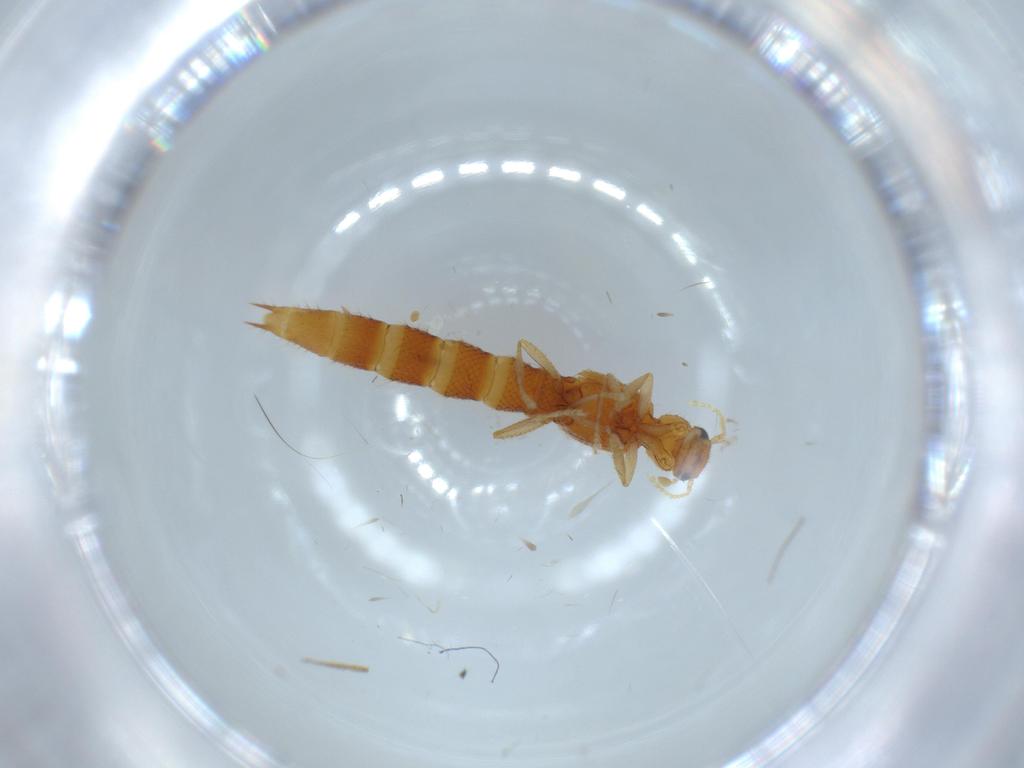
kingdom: Animalia
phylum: Arthropoda
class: Insecta
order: Coleoptera
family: Staphylinidae
